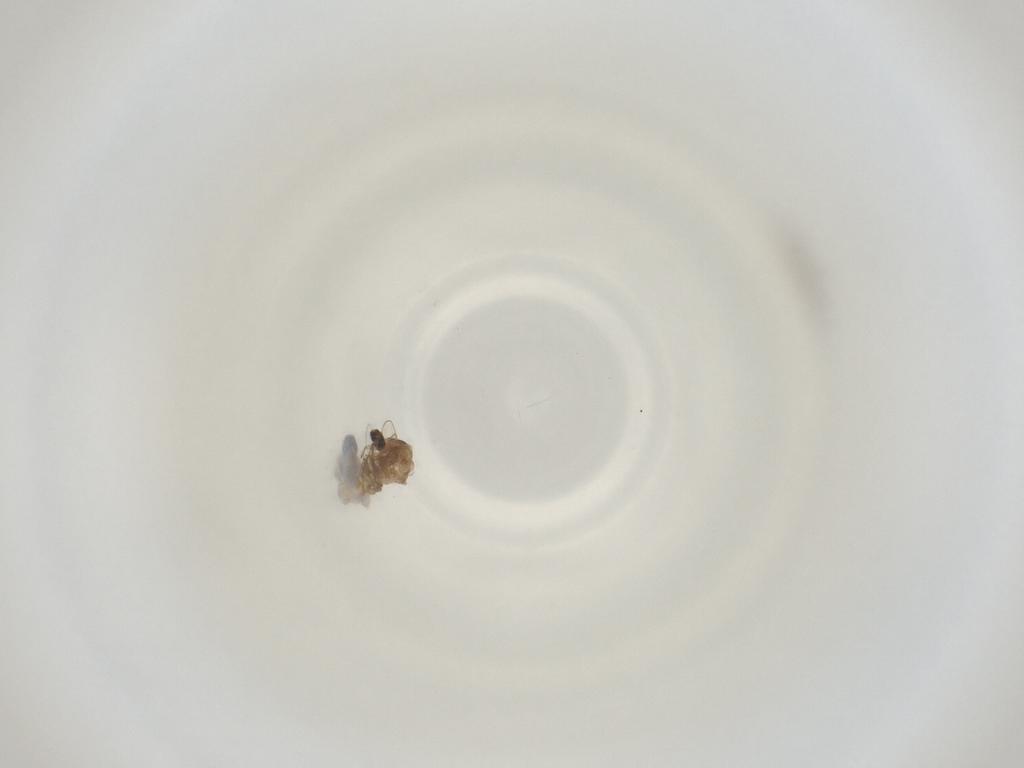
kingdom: Animalia
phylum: Arthropoda
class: Insecta
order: Diptera
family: Cecidomyiidae
